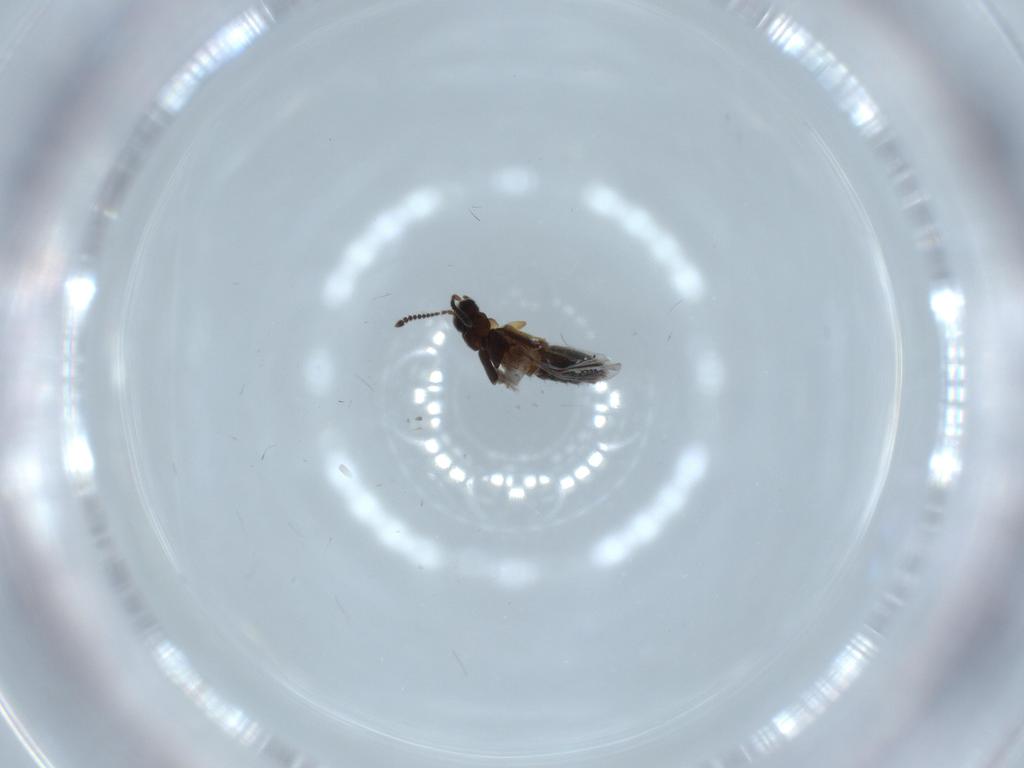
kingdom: Animalia
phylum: Arthropoda
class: Insecta
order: Coleoptera
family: Staphylinidae
